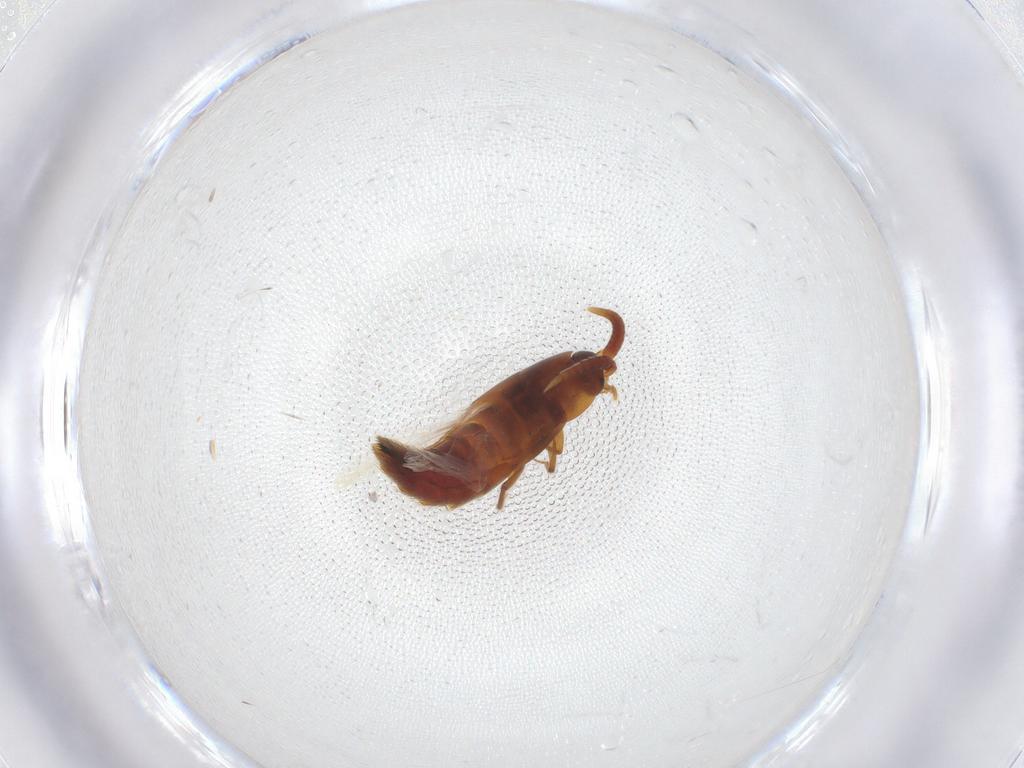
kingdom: Animalia
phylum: Arthropoda
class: Insecta
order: Coleoptera
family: Staphylinidae
